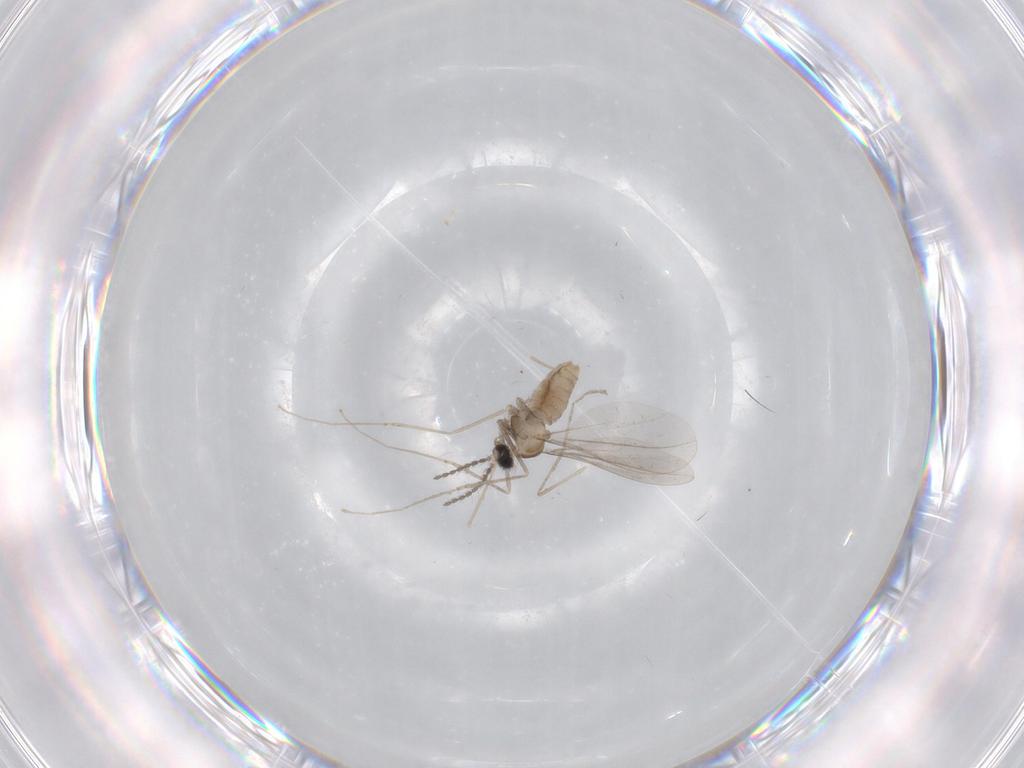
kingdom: Animalia
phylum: Arthropoda
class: Insecta
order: Diptera
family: Cecidomyiidae
